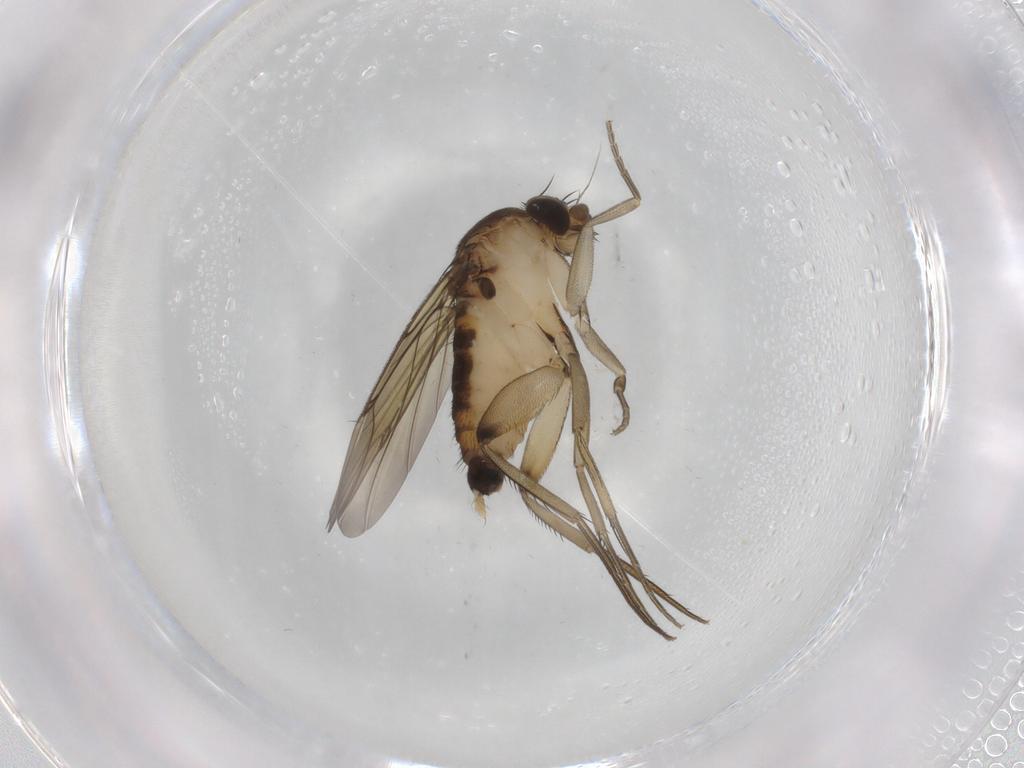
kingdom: Animalia
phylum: Arthropoda
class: Insecta
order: Diptera
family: Phoridae
